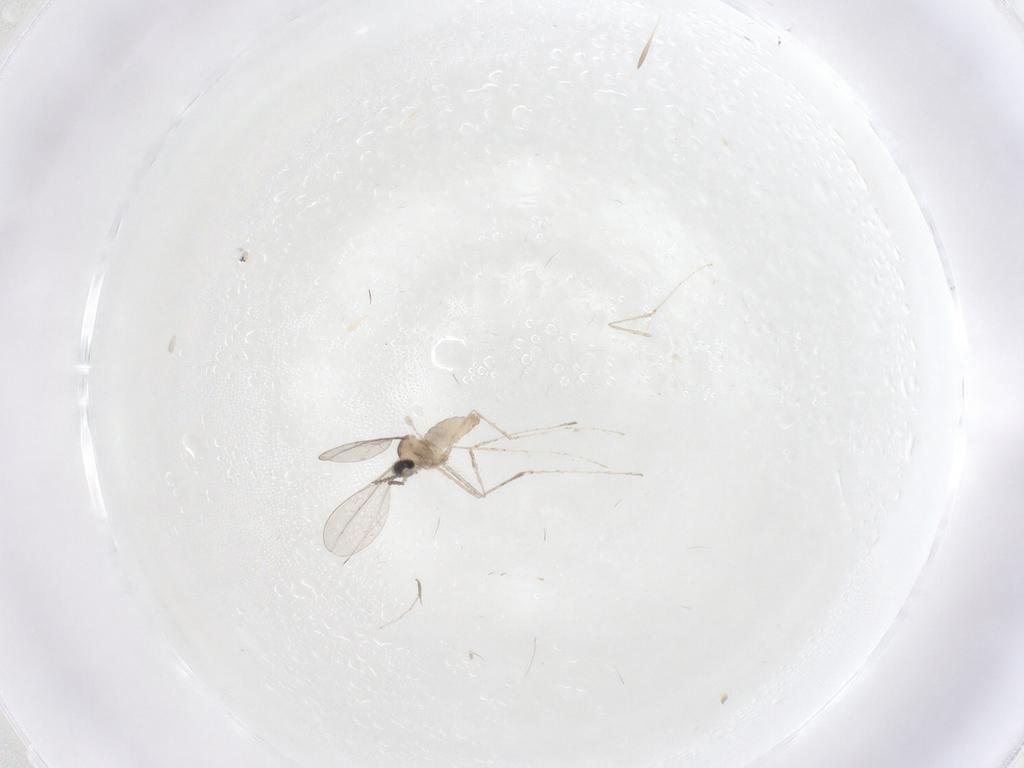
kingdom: Animalia
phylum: Arthropoda
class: Insecta
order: Diptera
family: Cecidomyiidae
